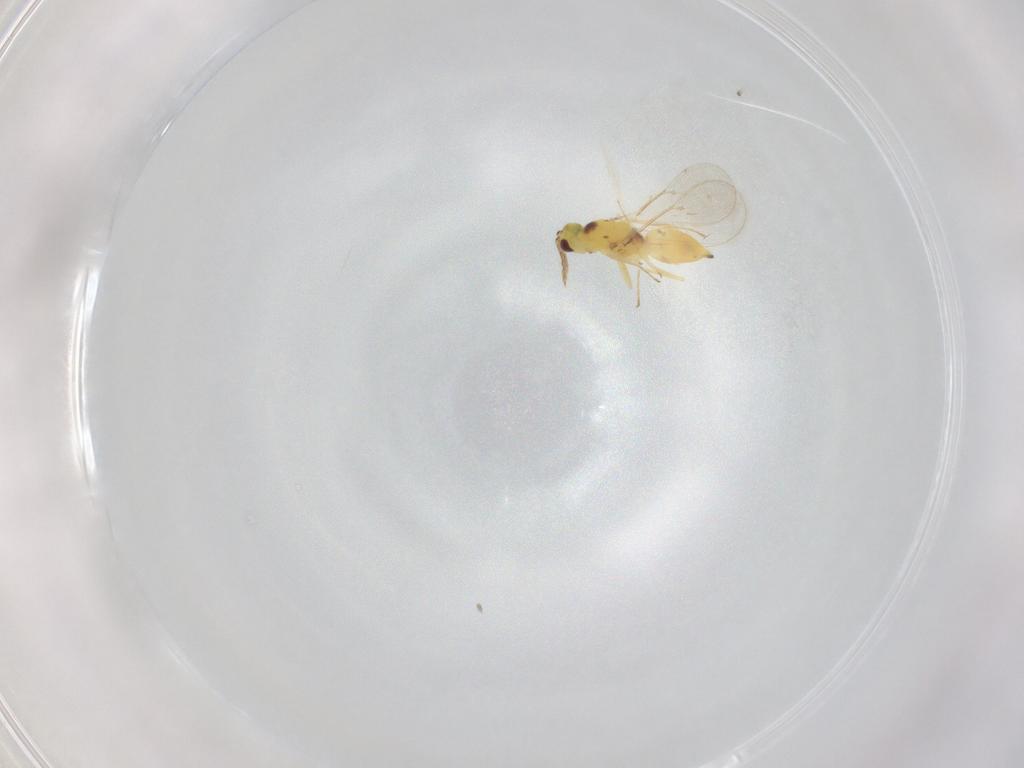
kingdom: Animalia
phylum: Arthropoda
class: Insecta
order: Hymenoptera
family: Eulophidae
